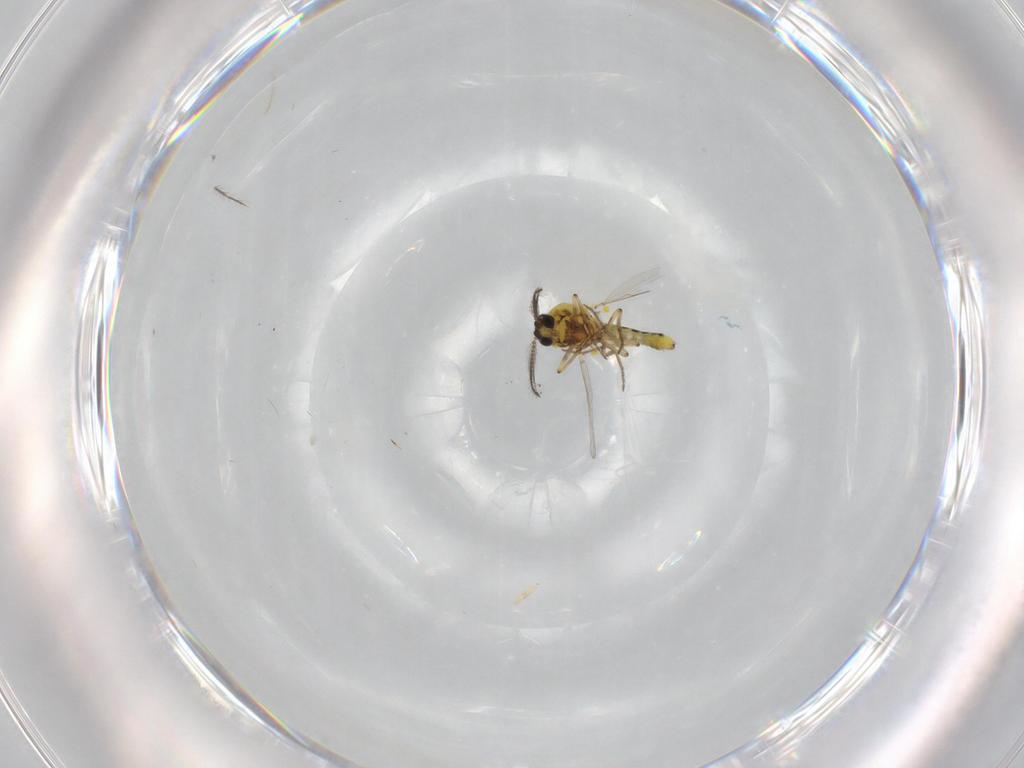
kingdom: Animalia
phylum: Arthropoda
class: Insecta
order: Diptera
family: Ceratopogonidae
